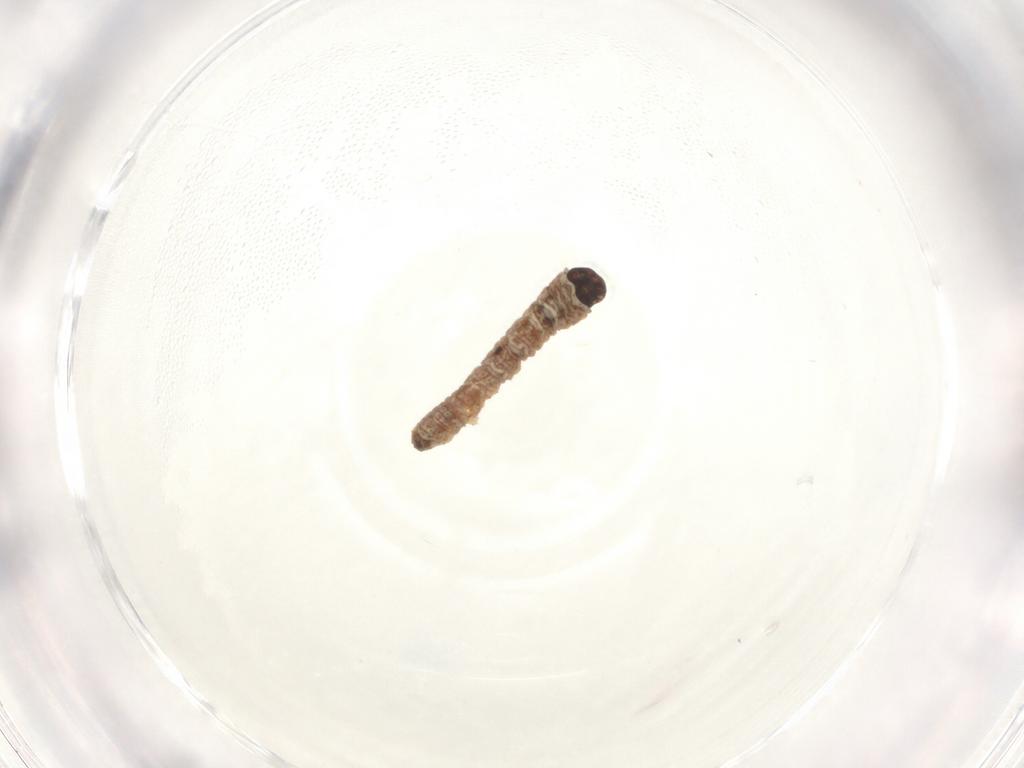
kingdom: Animalia
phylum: Arthropoda
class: Insecta
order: Lepidoptera
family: Geometridae
